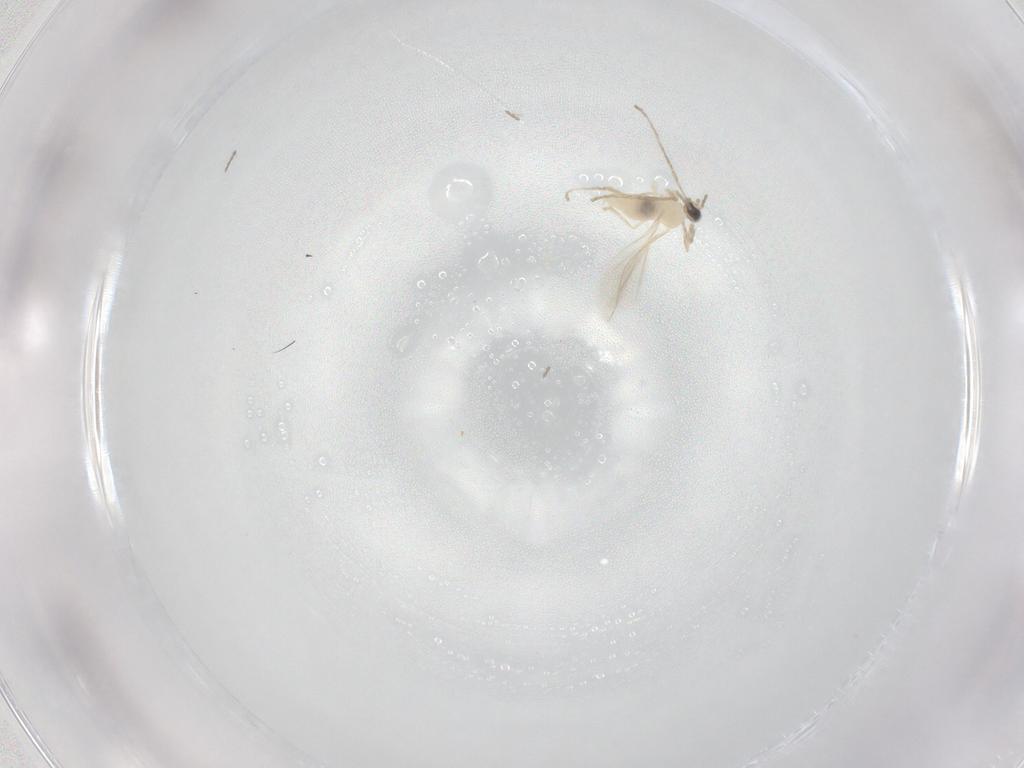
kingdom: Animalia
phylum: Arthropoda
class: Insecta
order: Diptera
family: Cecidomyiidae
